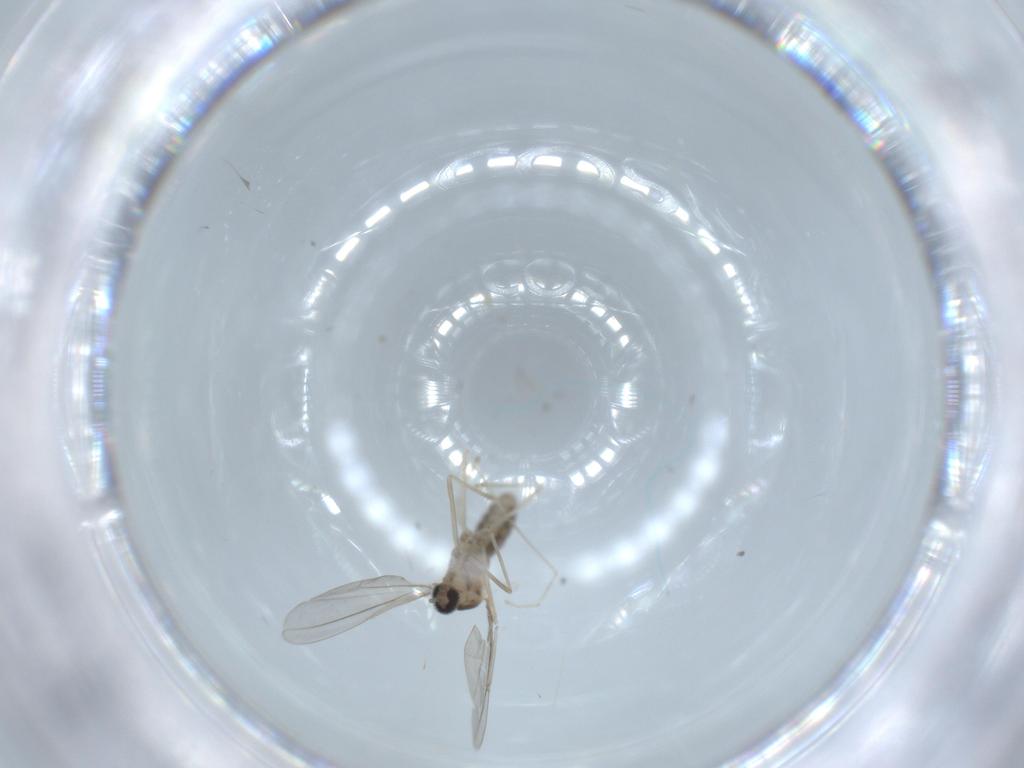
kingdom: Animalia
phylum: Arthropoda
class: Insecta
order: Diptera
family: Cecidomyiidae
